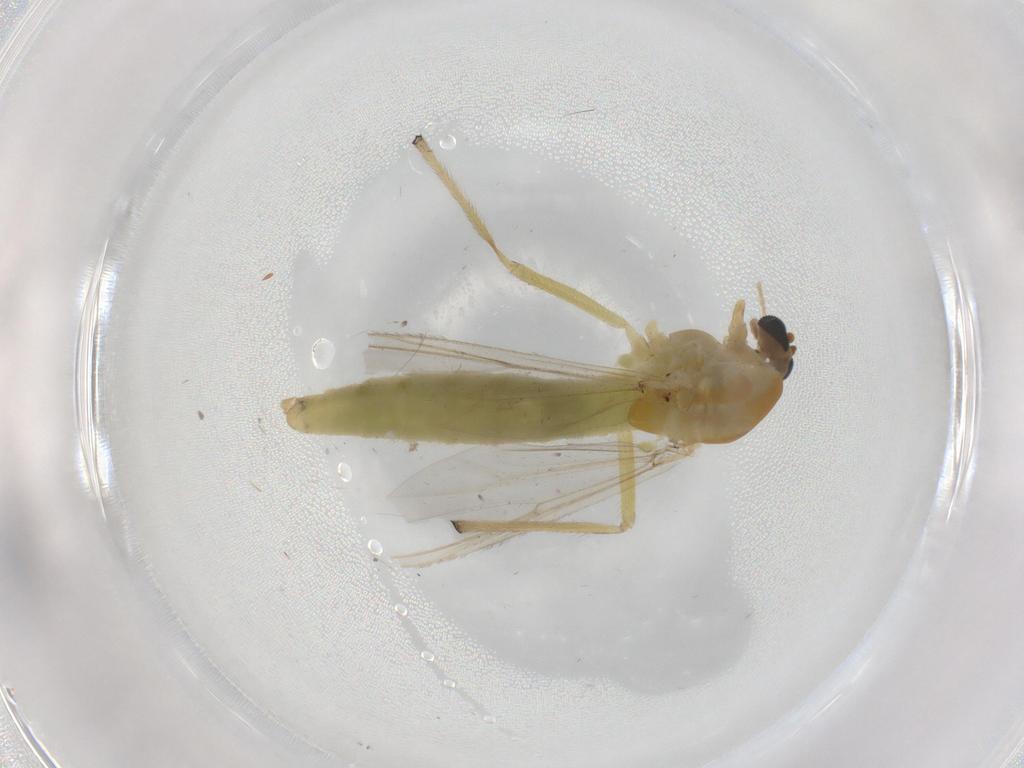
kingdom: Animalia
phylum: Arthropoda
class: Insecta
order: Diptera
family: Chironomidae
